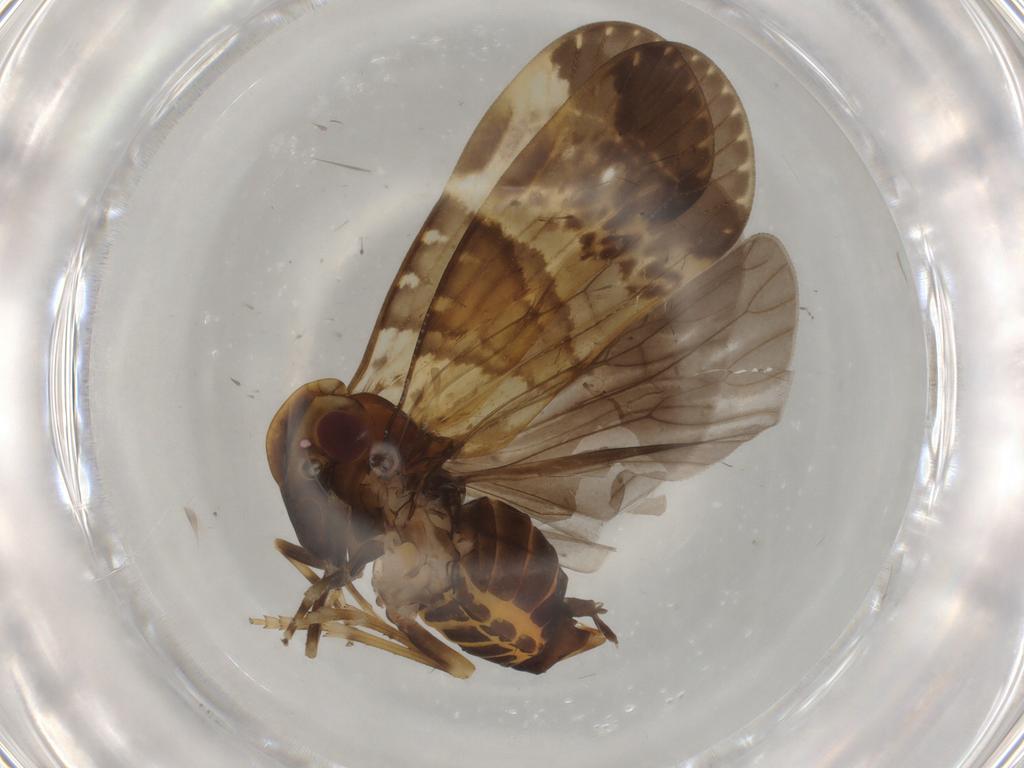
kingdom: Animalia
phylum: Arthropoda
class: Insecta
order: Hemiptera
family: Cixiidae
